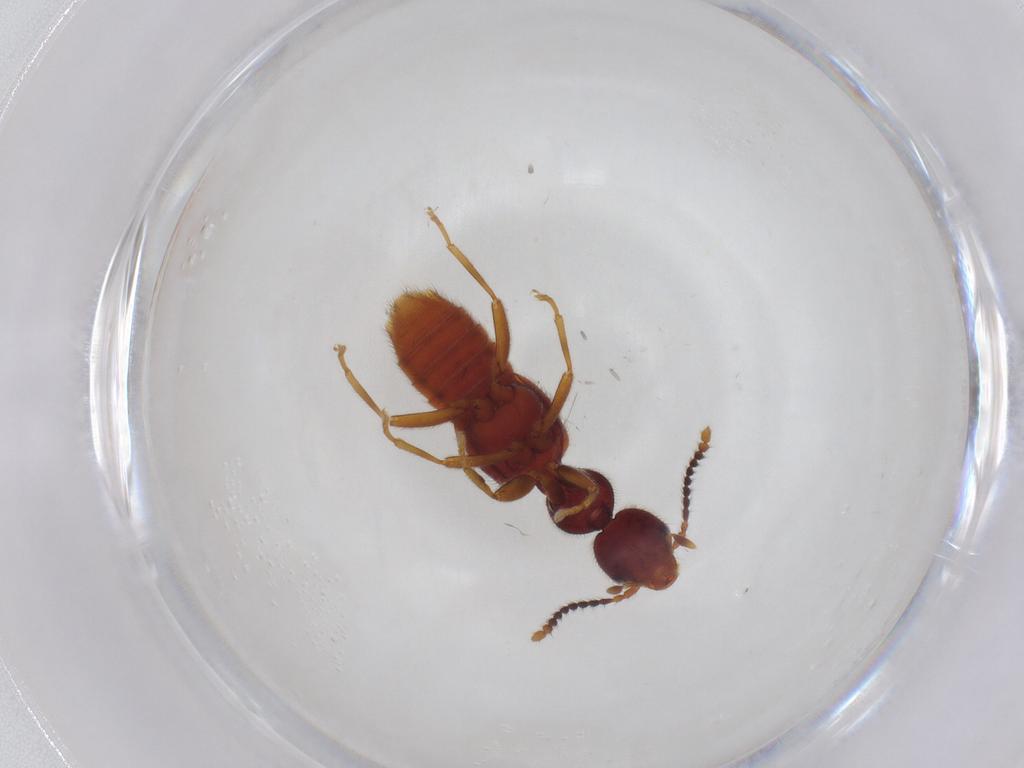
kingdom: Animalia
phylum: Arthropoda
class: Insecta
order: Coleoptera
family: Staphylinidae
